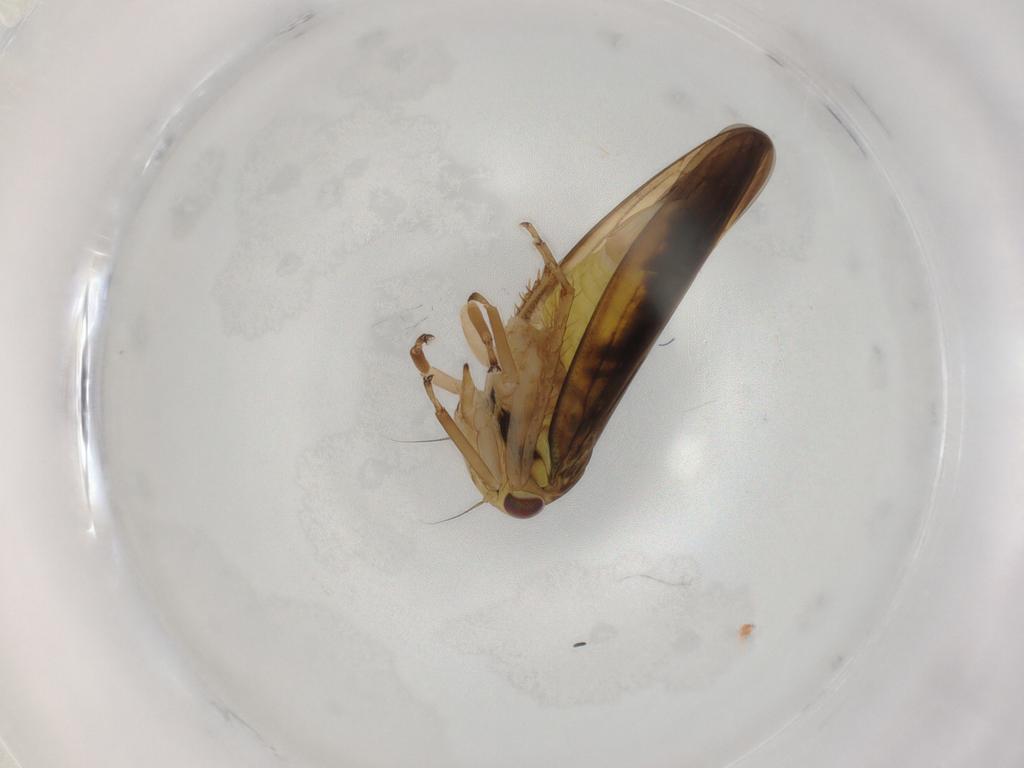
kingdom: Animalia
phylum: Arthropoda
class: Insecta
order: Hemiptera
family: Cicadellidae
